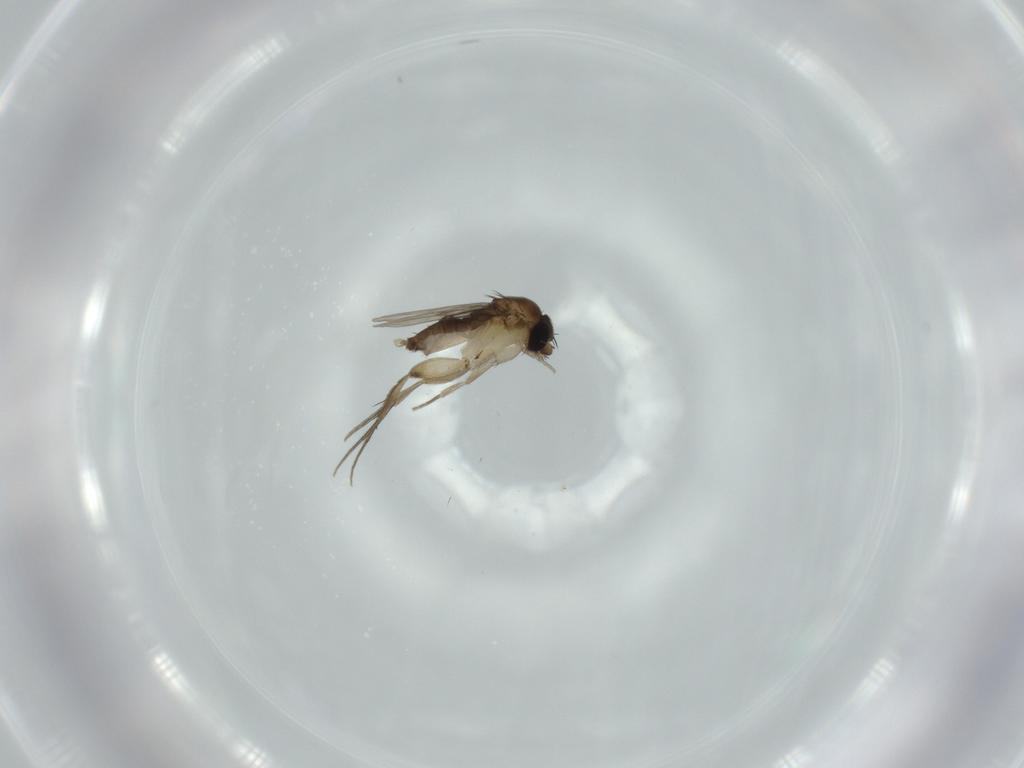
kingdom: Animalia
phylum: Arthropoda
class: Insecta
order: Diptera
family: Phoridae
